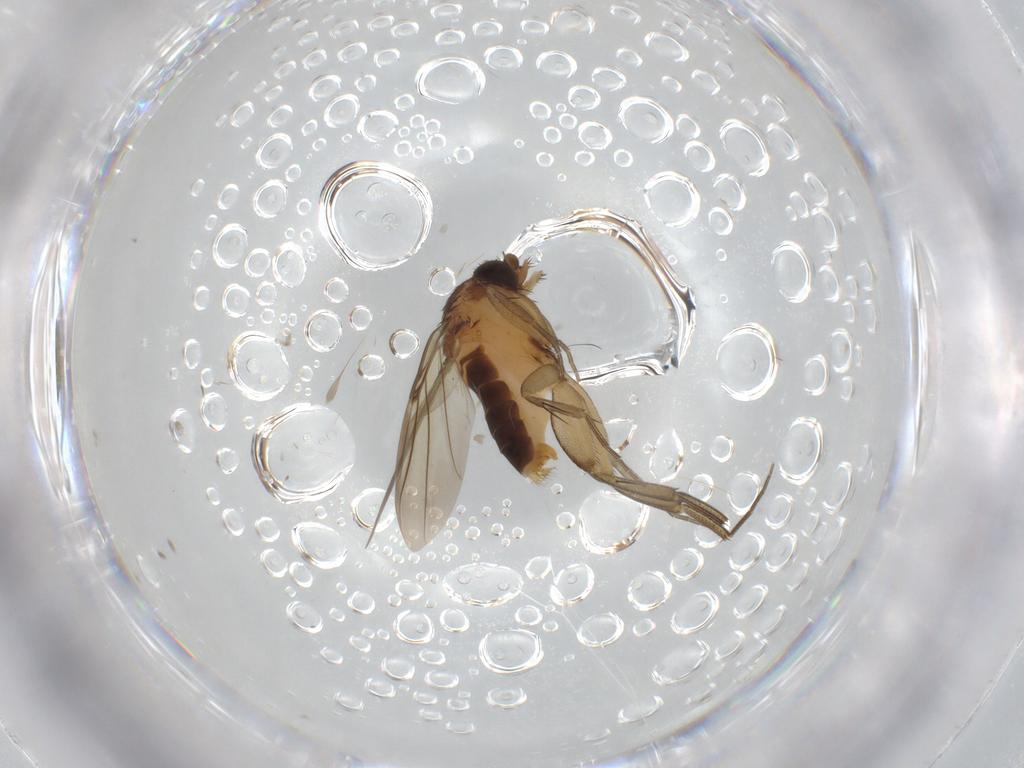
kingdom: Animalia
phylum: Arthropoda
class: Insecta
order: Diptera
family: Phoridae
